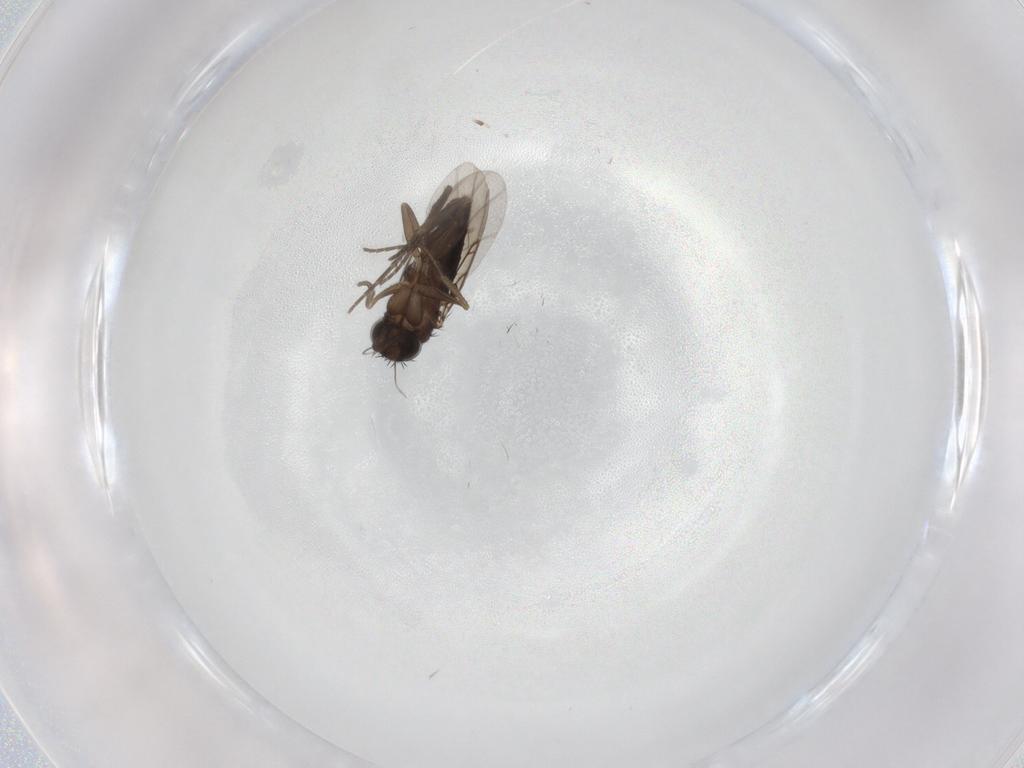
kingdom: Animalia
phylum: Arthropoda
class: Insecta
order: Diptera
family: Phoridae
